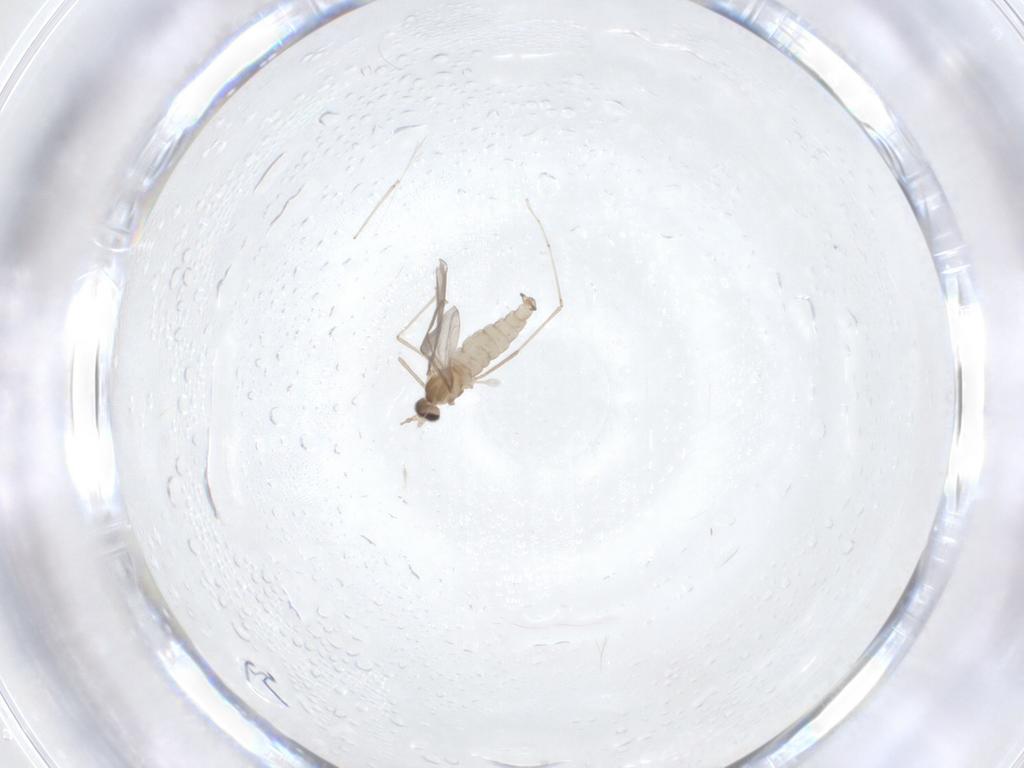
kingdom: Animalia
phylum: Arthropoda
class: Insecta
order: Diptera
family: Cecidomyiidae
